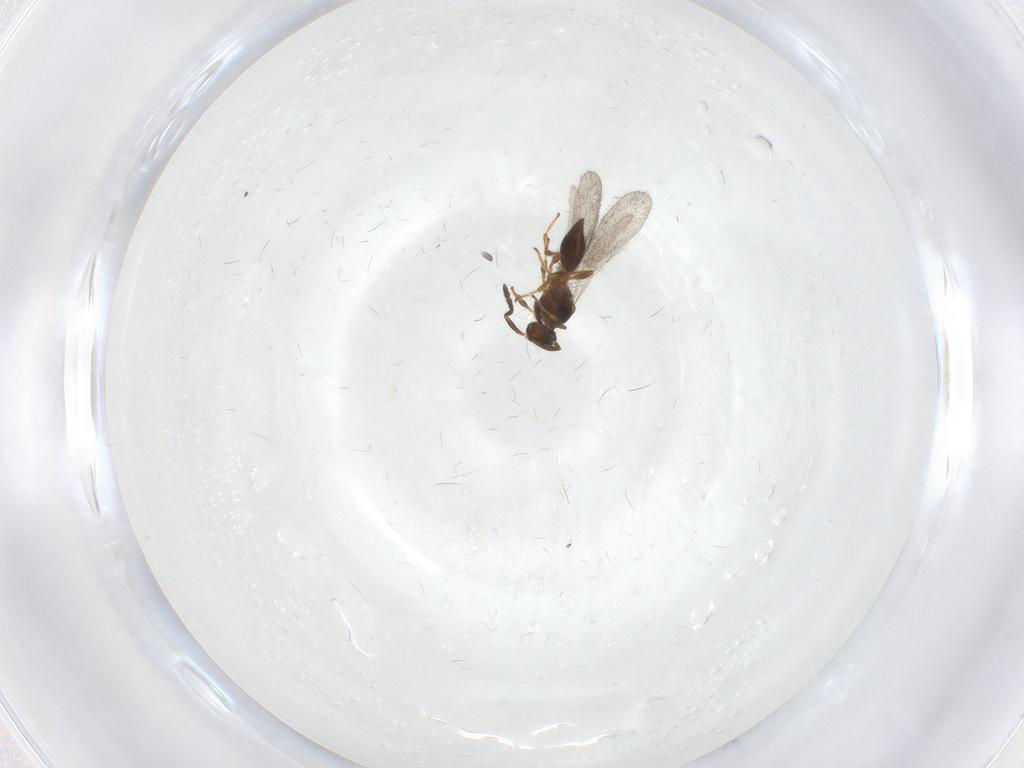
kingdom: Animalia
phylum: Arthropoda
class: Insecta
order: Hymenoptera
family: Platygastridae
